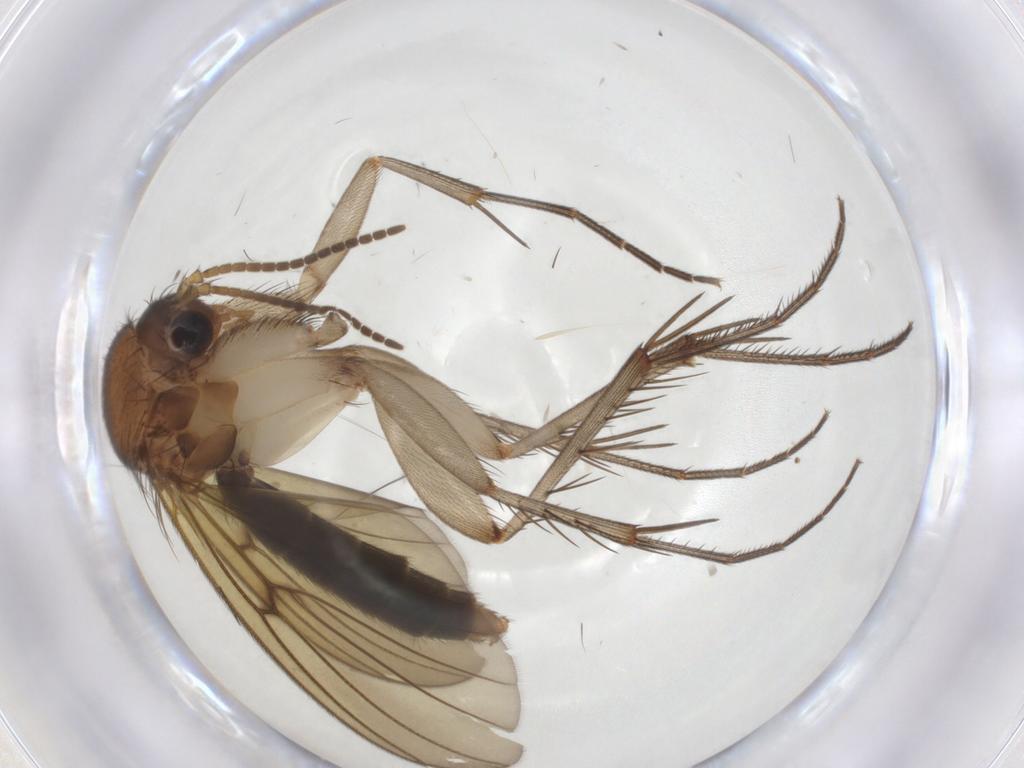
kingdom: Animalia
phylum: Arthropoda
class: Insecta
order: Diptera
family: Mycetophilidae
